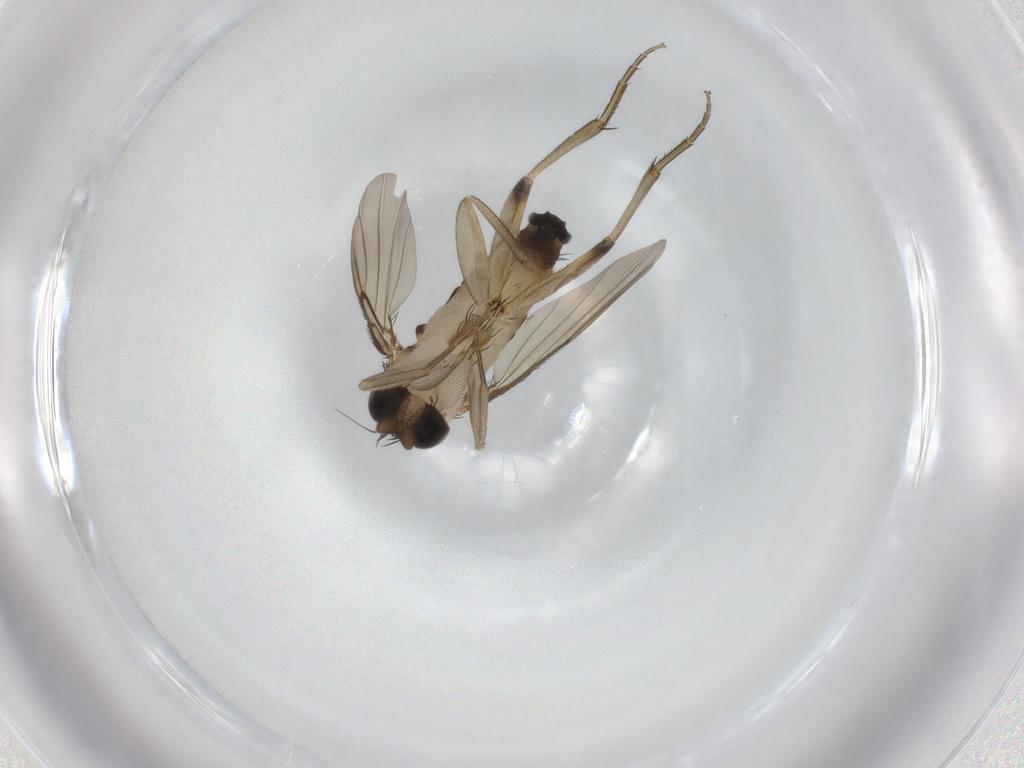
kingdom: Animalia
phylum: Arthropoda
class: Insecta
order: Diptera
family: Phoridae
